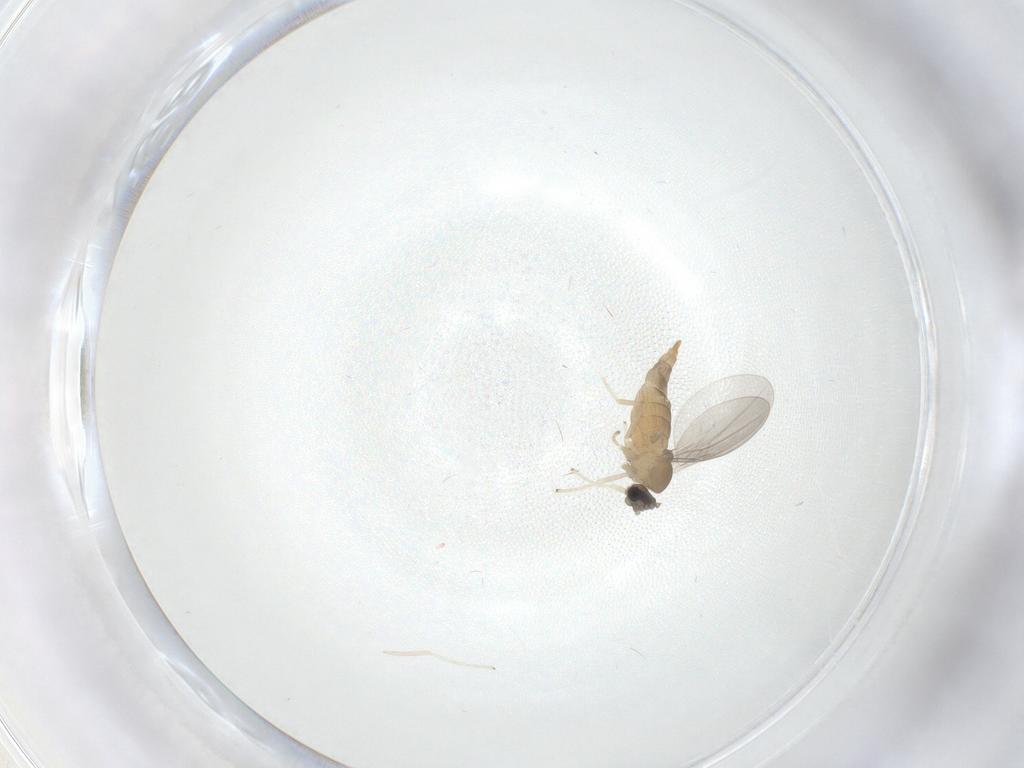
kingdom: Animalia
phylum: Arthropoda
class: Insecta
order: Diptera
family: Cecidomyiidae
